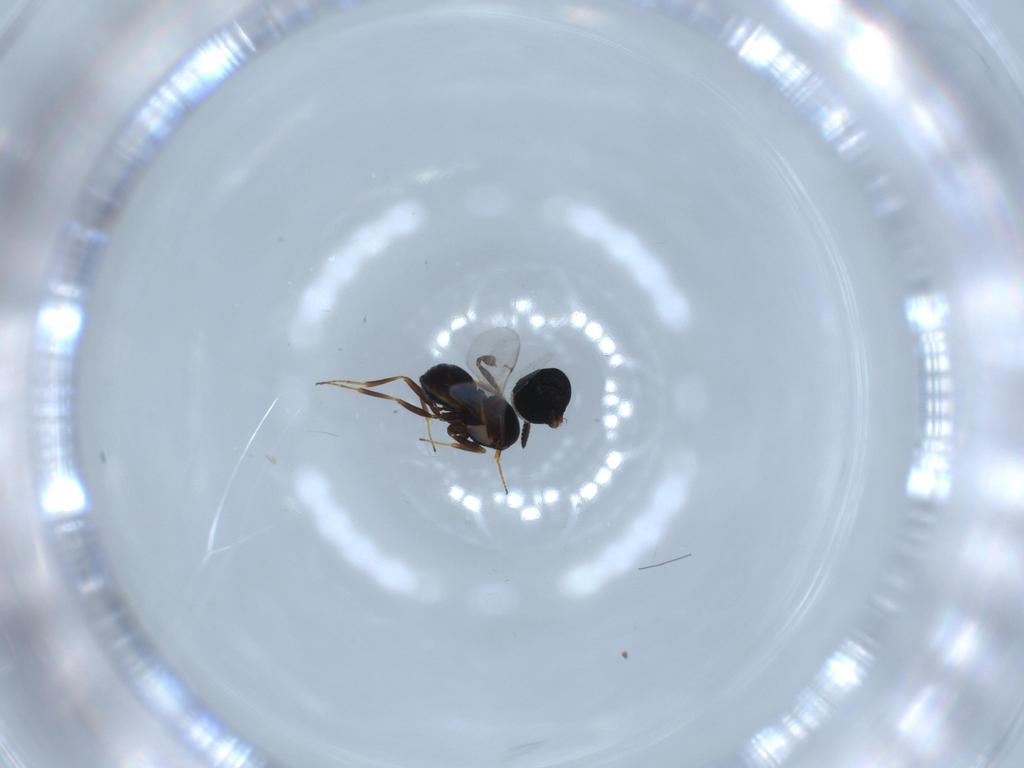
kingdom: Animalia
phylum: Arthropoda
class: Insecta
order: Hymenoptera
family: Scelionidae
